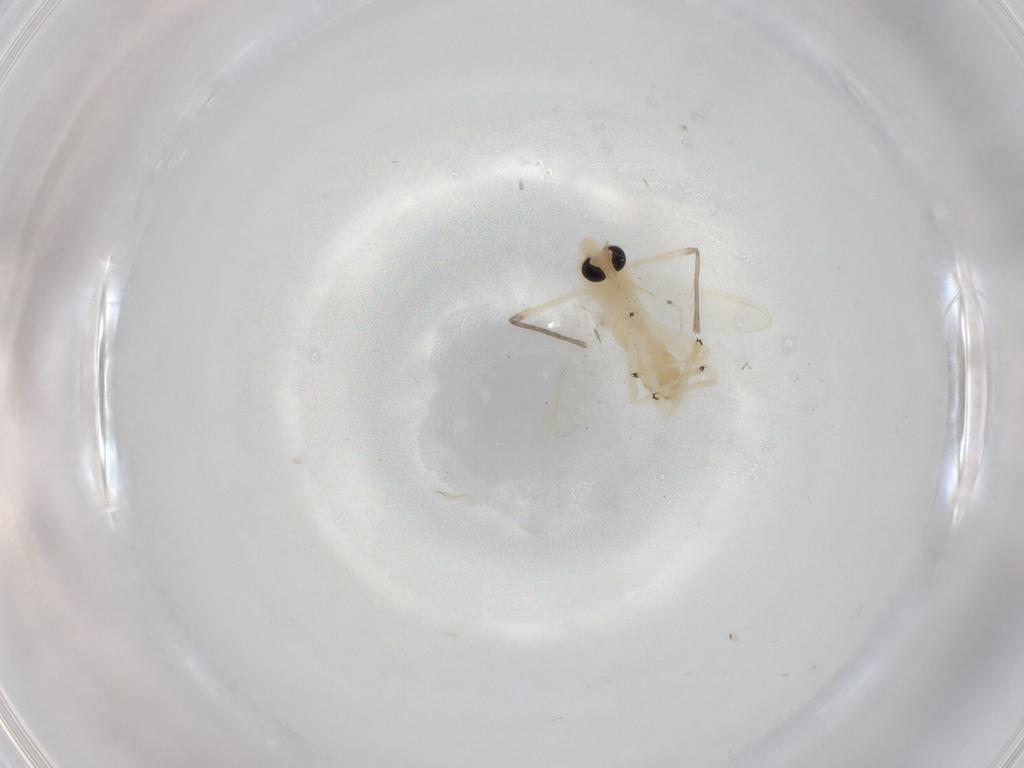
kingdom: Animalia
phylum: Arthropoda
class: Insecta
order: Diptera
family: Chironomidae
